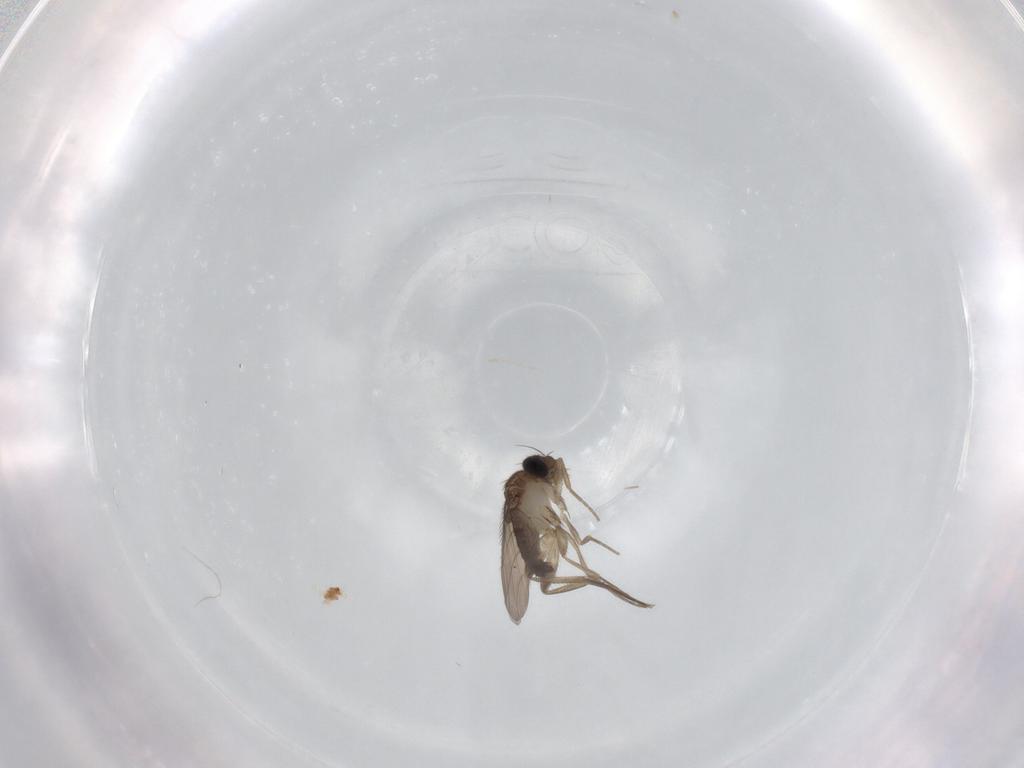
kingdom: Animalia
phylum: Arthropoda
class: Insecta
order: Diptera
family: Phoridae
